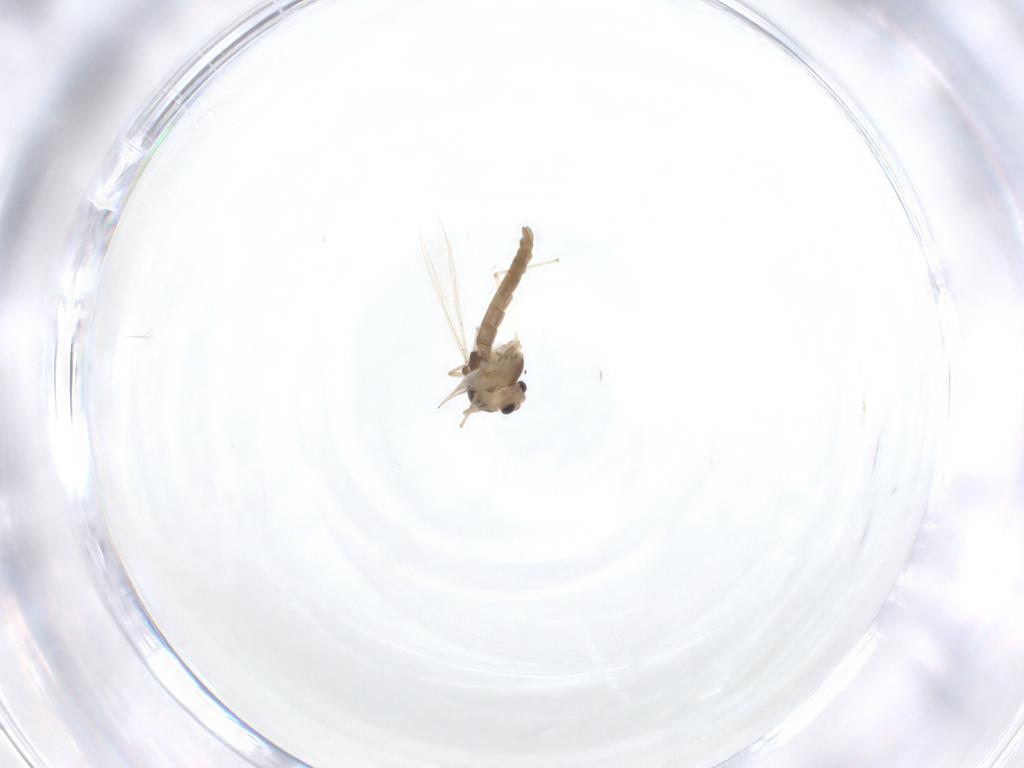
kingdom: Animalia
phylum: Arthropoda
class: Insecta
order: Diptera
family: Chironomidae
